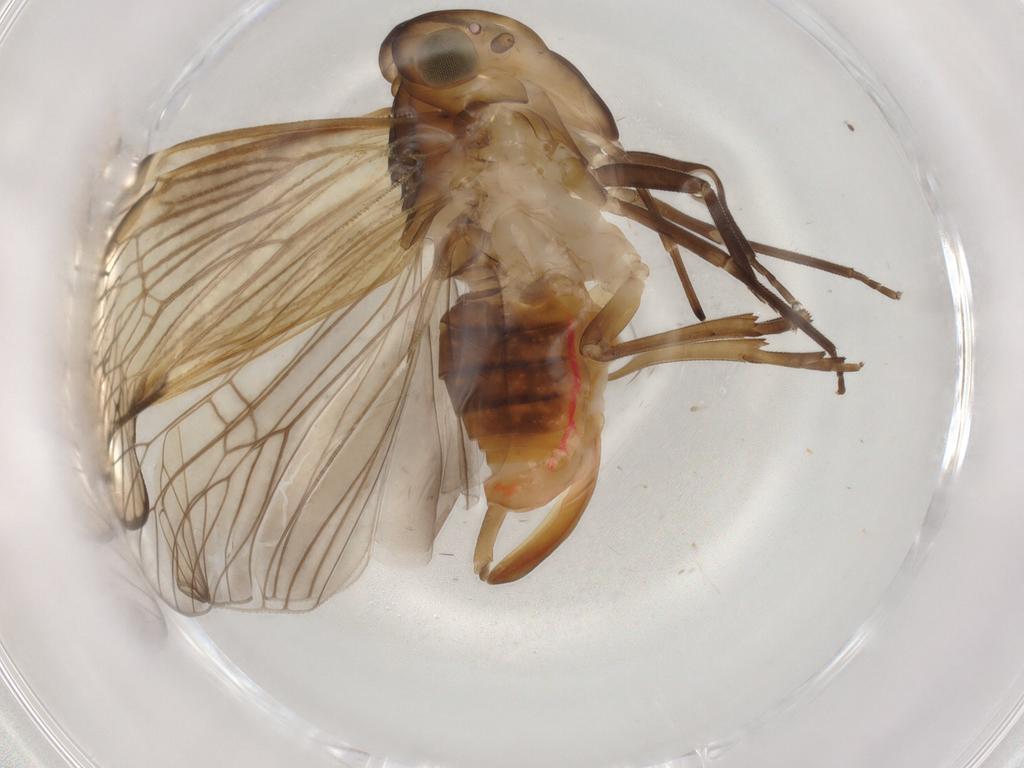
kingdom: Animalia
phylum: Arthropoda
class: Insecta
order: Hemiptera
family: Cixiidae
